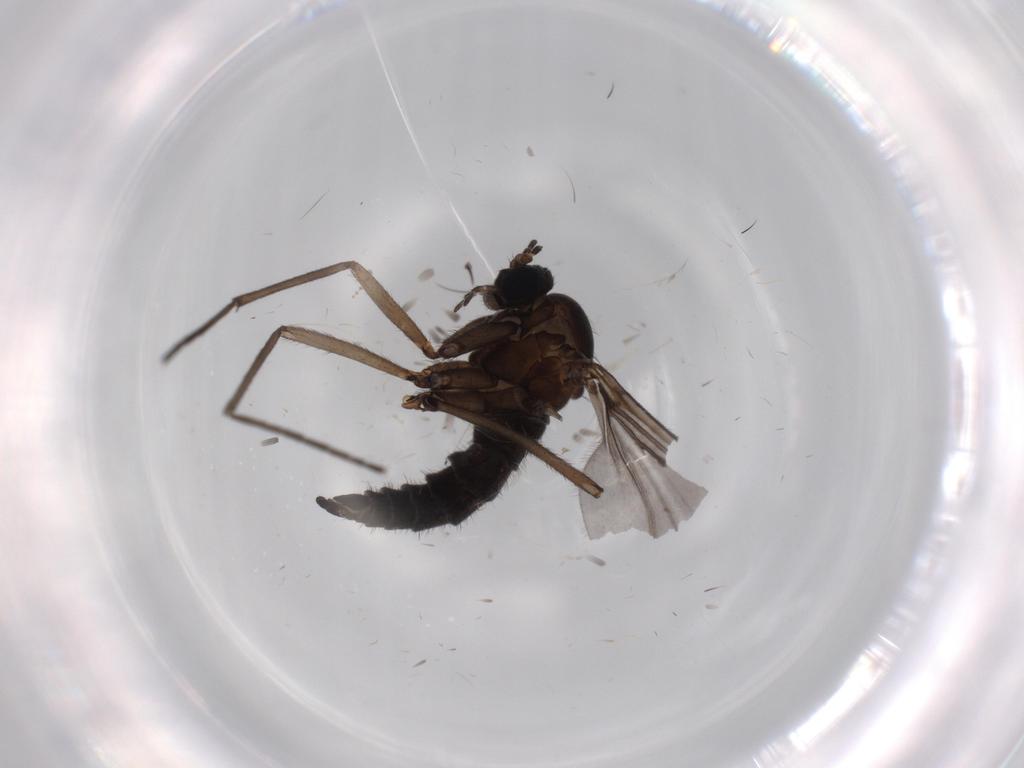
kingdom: Animalia
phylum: Arthropoda
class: Insecta
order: Diptera
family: Sciaridae
